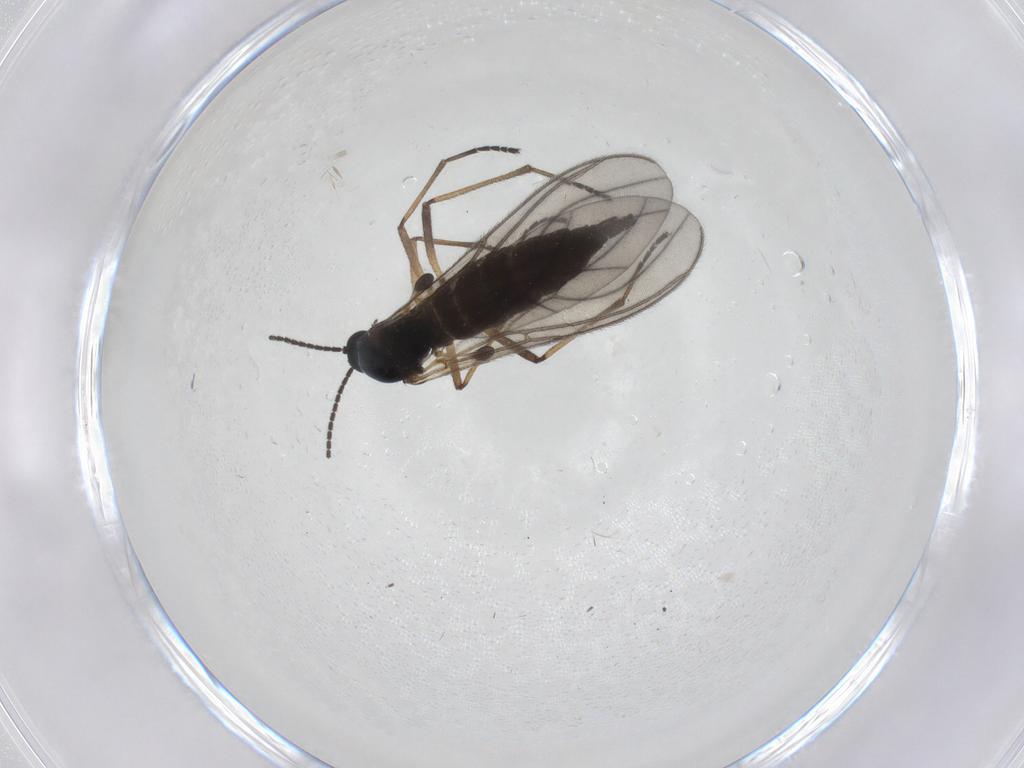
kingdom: Animalia
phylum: Arthropoda
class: Insecta
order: Diptera
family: Sciaridae
